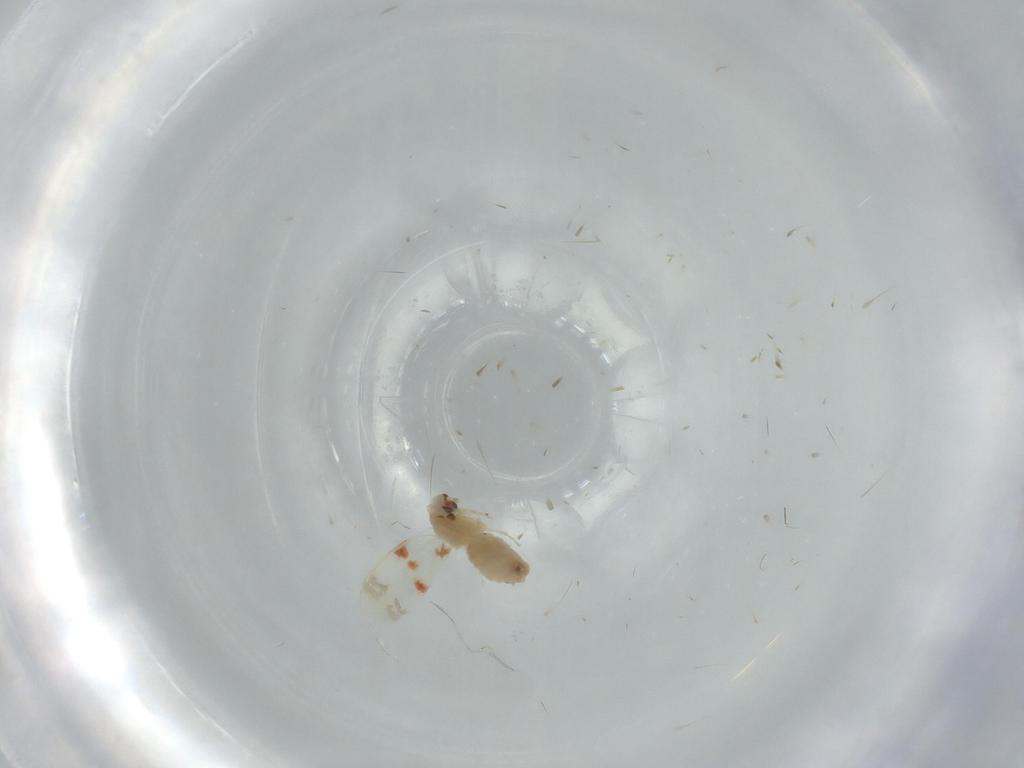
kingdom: Animalia
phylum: Arthropoda
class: Insecta
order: Hemiptera
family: Aleyrodidae
